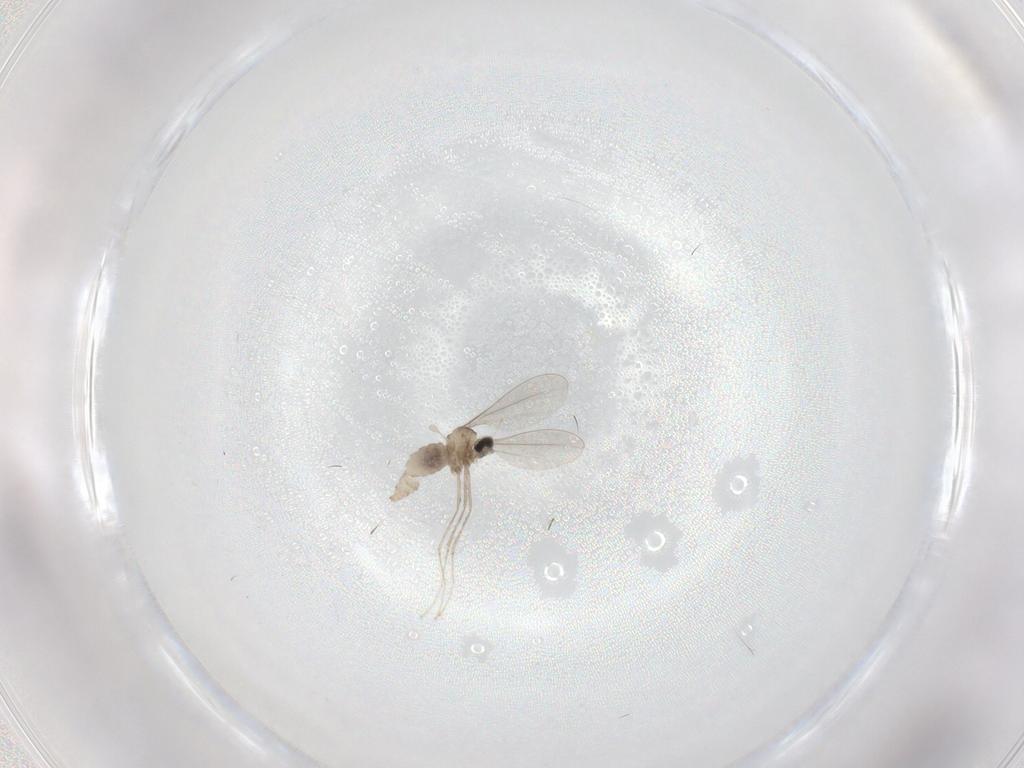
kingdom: Animalia
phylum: Arthropoda
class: Insecta
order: Diptera
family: Cecidomyiidae
